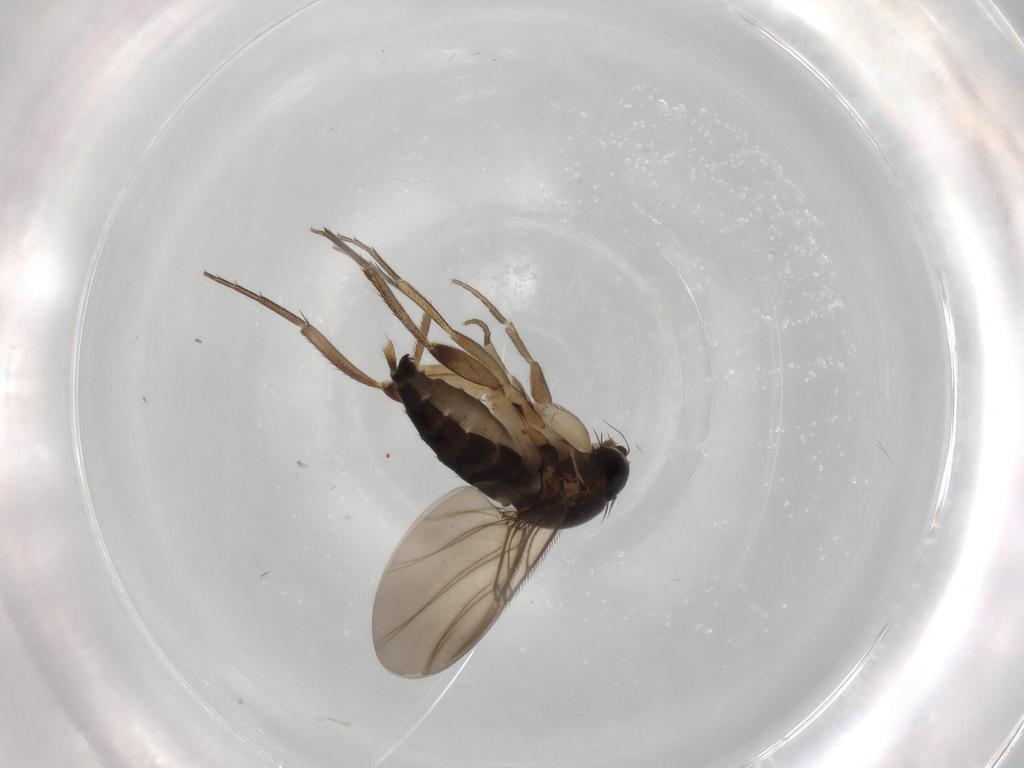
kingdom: Animalia
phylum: Arthropoda
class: Insecta
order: Diptera
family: Phoridae
